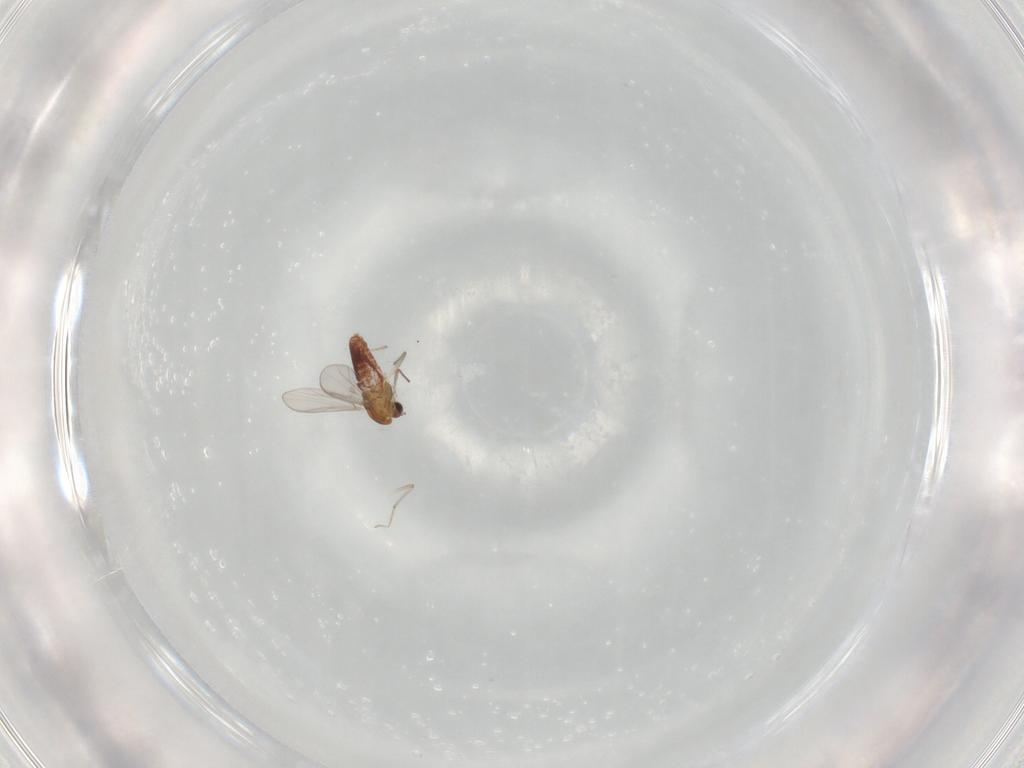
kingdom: Animalia
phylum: Arthropoda
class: Insecta
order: Diptera
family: Chironomidae
